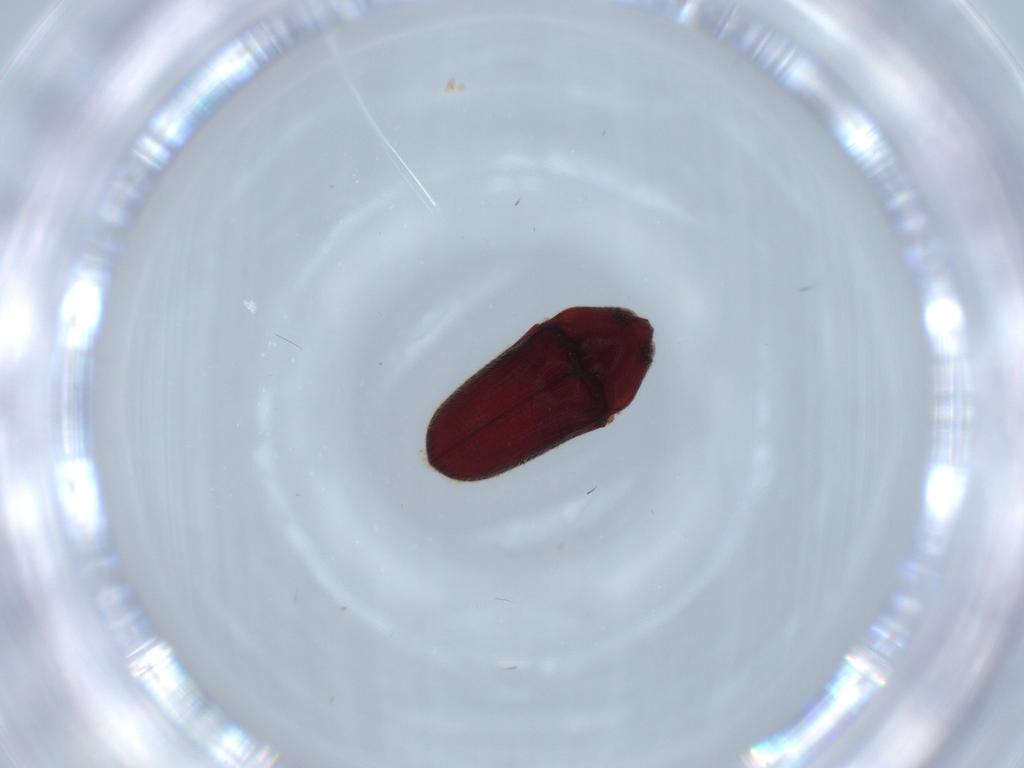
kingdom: Animalia
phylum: Arthropoda
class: Insecta
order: Coleoptera
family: Throscidae
